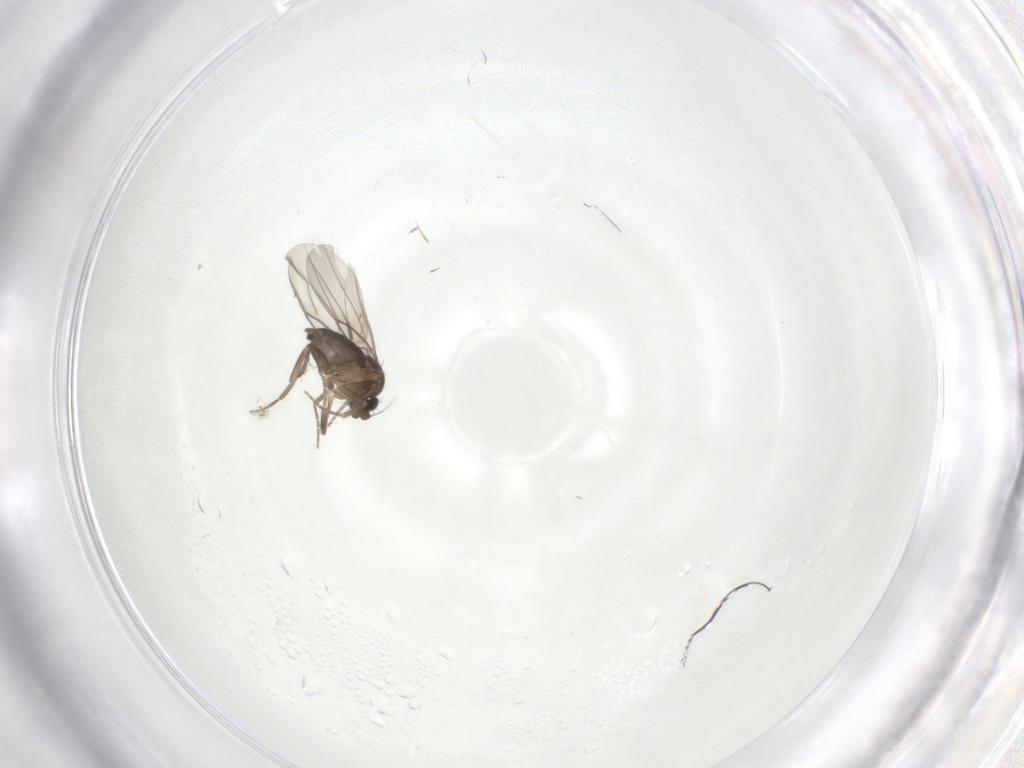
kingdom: Animalia
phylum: Arthropoda
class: Insecta
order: Diptera
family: Phoridae
